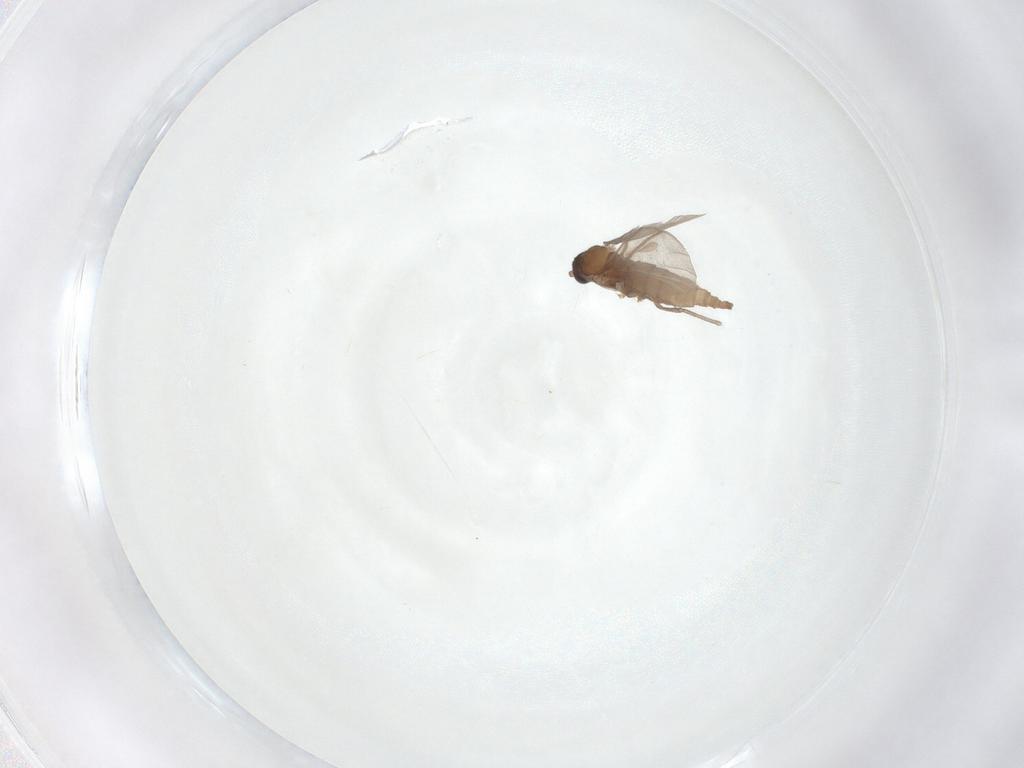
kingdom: Animalia
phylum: Arthropoda
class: Insecta
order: Diptera
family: Sciaridae
